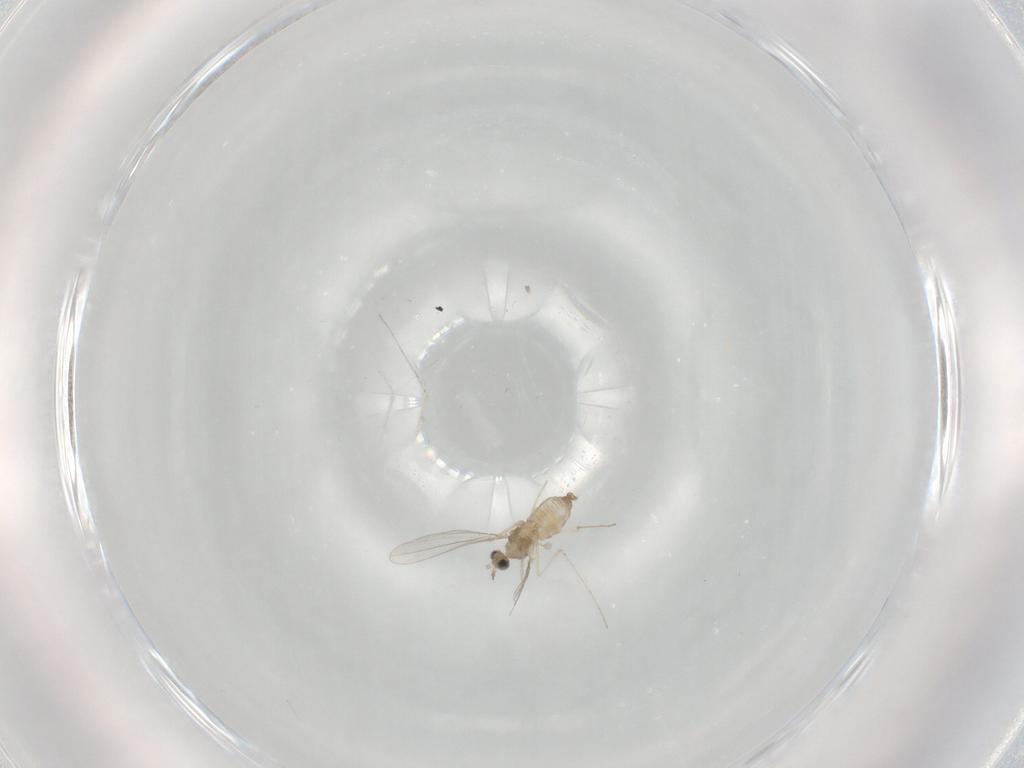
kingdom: Animalia
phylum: Arthropoda
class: Insecta
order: Diptera
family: Cecidomyiidae
